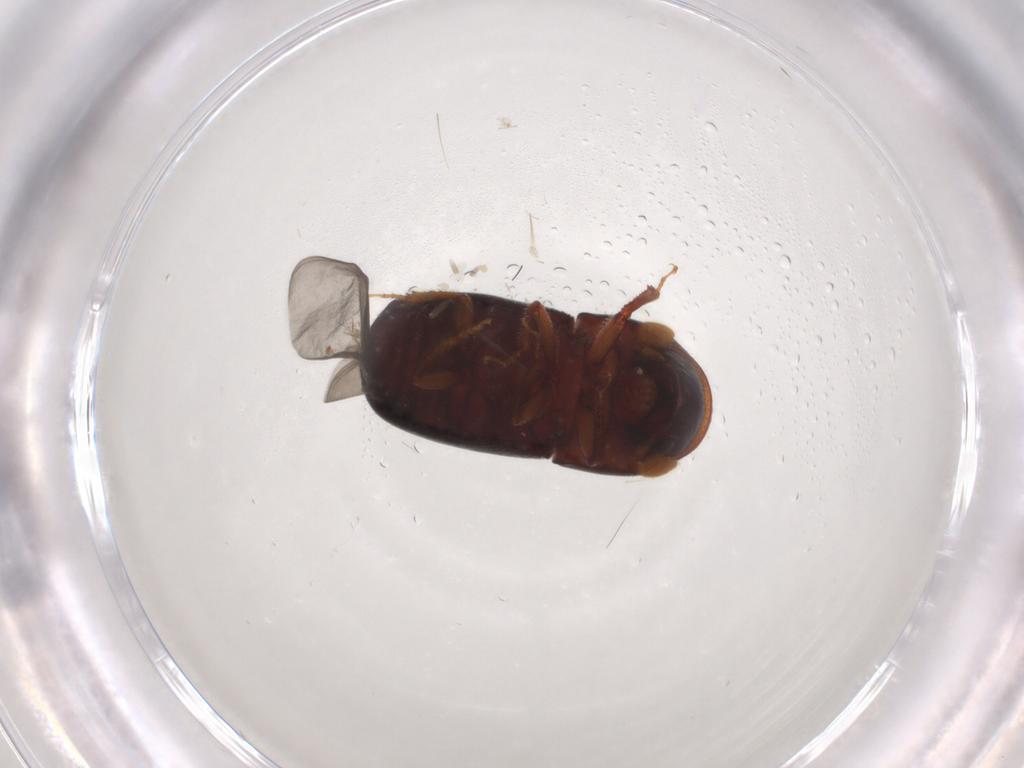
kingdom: Animalia
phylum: Arthropoda
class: Insecta
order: Coleoptera
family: Curculionidae
